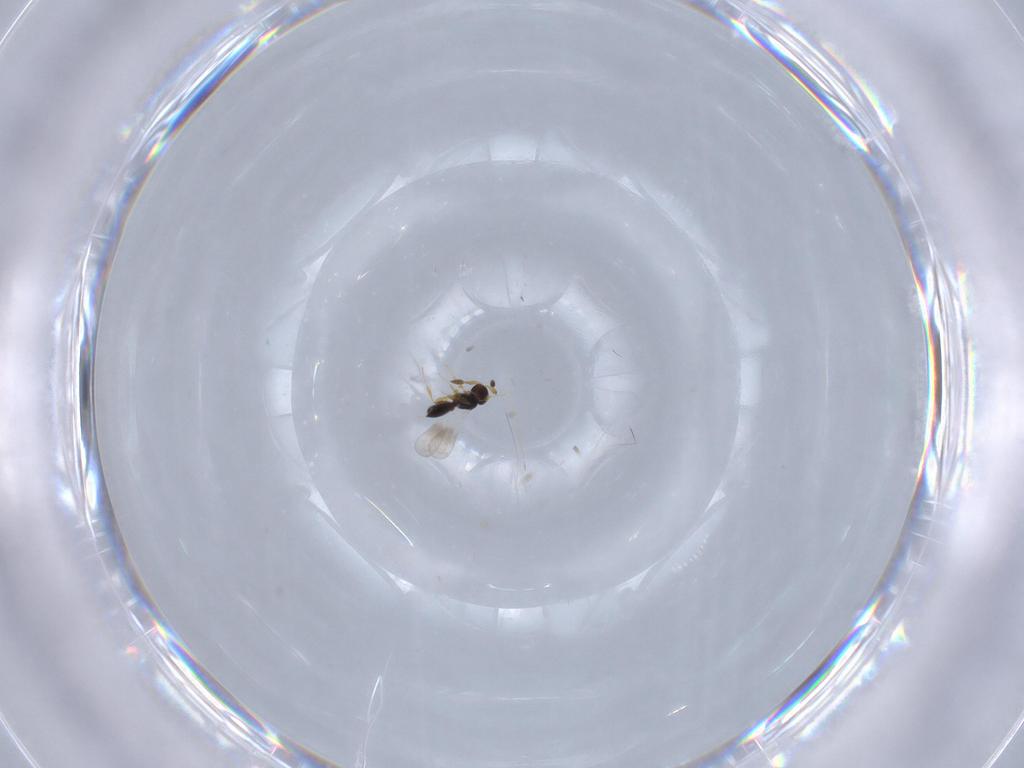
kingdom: Animalia
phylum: Arthropoda
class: Insecta
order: Hymenoptera
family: Platygastridae
